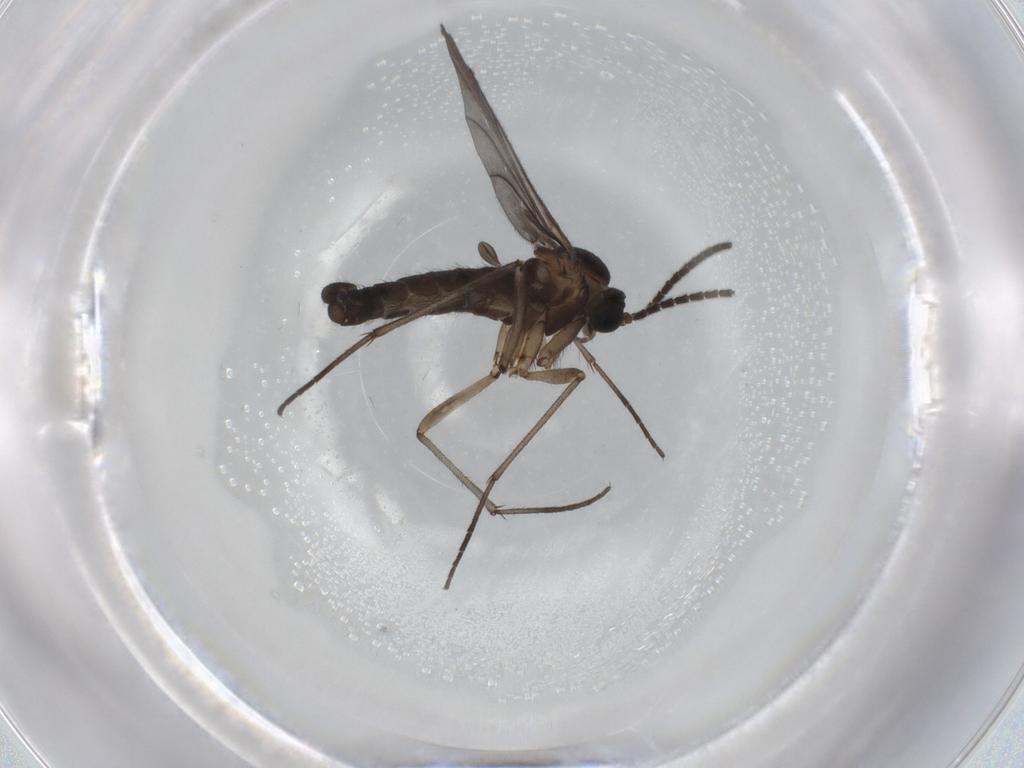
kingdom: Animalia
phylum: Arthropoda
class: Insecta
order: Diptera
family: Sciaridae
